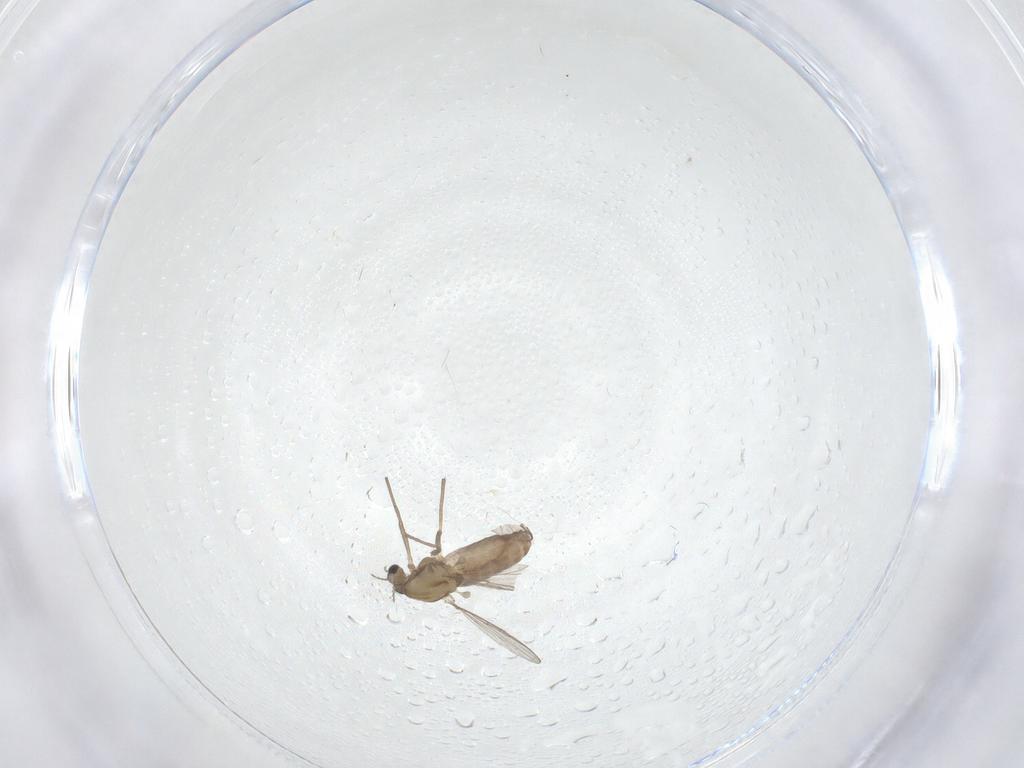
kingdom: Animalia
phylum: Arthropoda
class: Insecta
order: Diptera
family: Chironomidae
